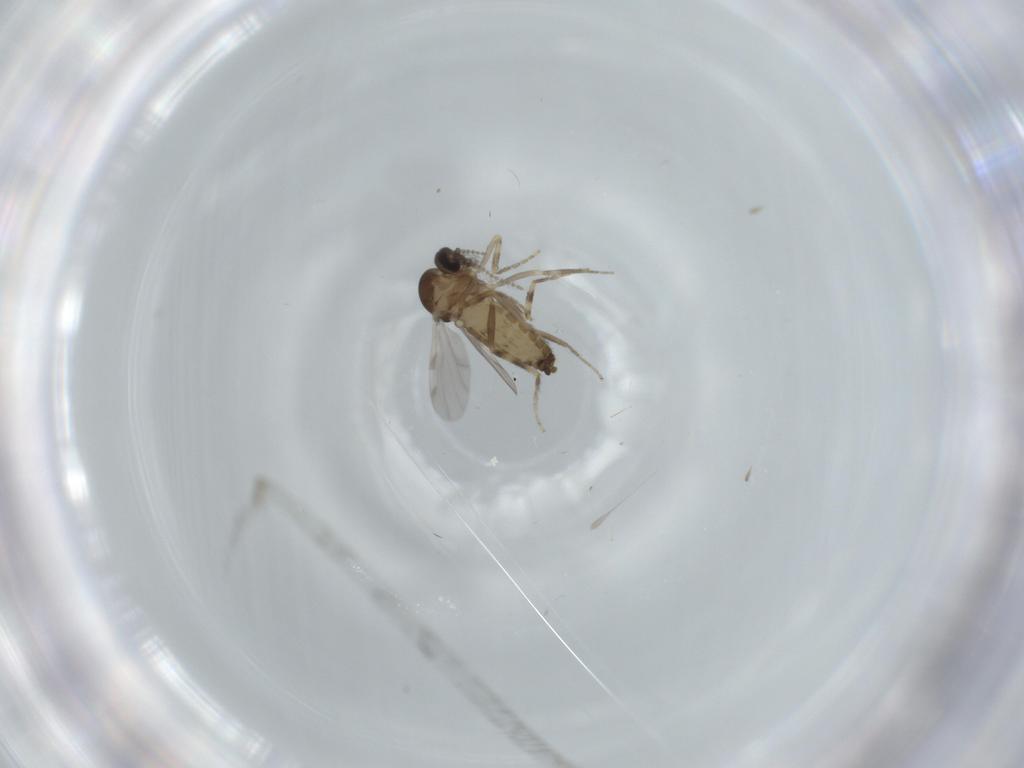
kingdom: Animalia
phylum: Arthropoda
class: Insecta
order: Diptera
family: Ceratopogonidae
